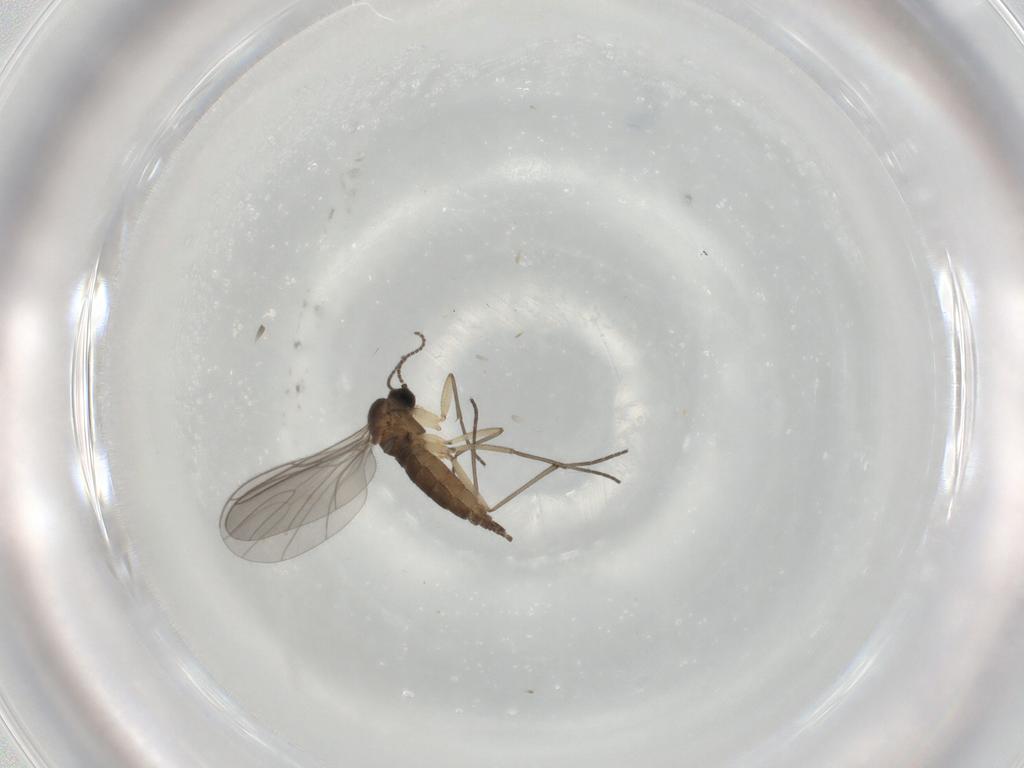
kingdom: Animalia
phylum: Arthropoda
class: Insecta
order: Diptera
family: Sciaridae
